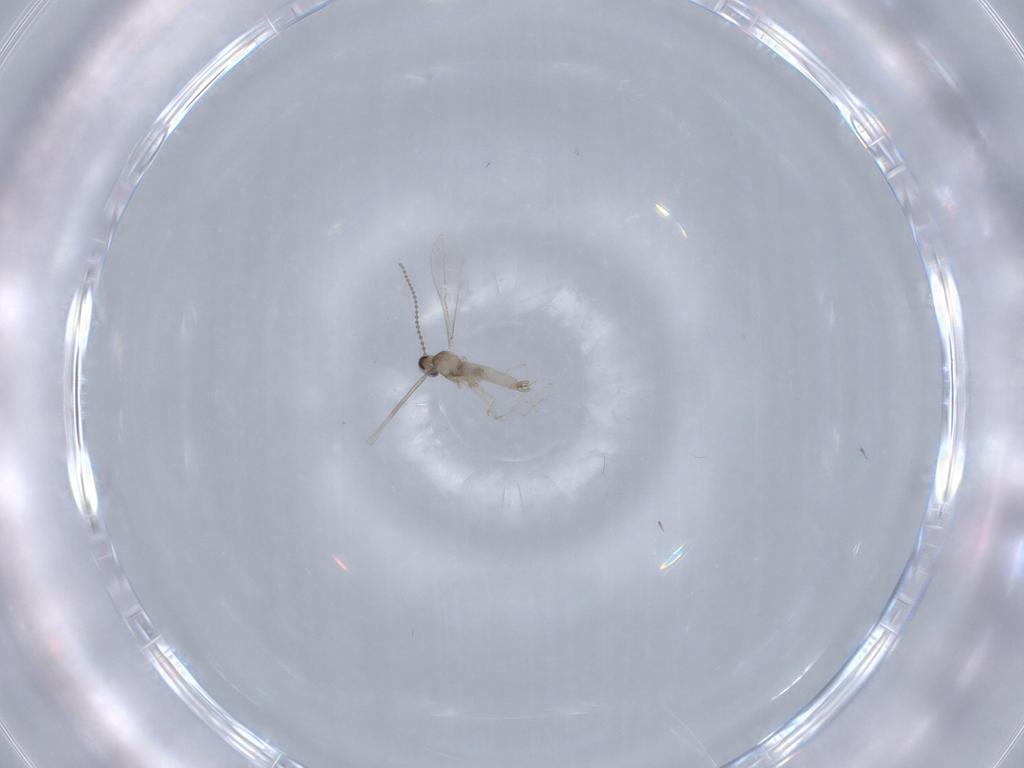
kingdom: Animalia
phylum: Arthropoda
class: Insecta
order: Diptera
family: Cecidomyiidae
